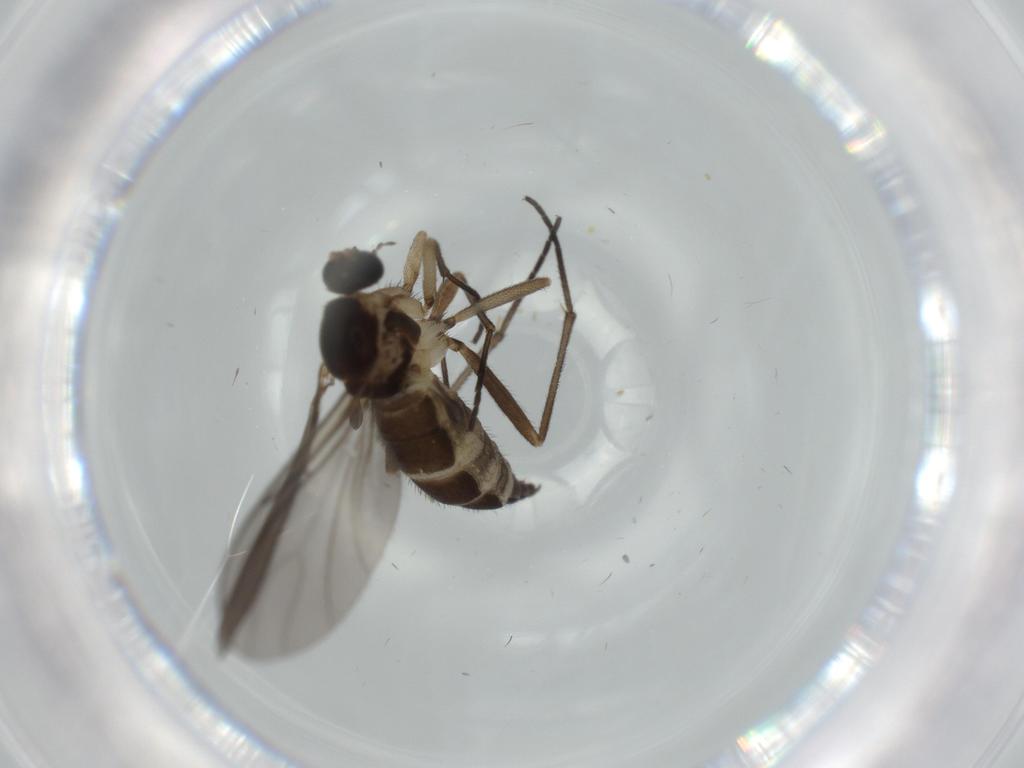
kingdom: Animalia
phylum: Arthropoda
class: Insecta
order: Diptera
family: Sciaridae
